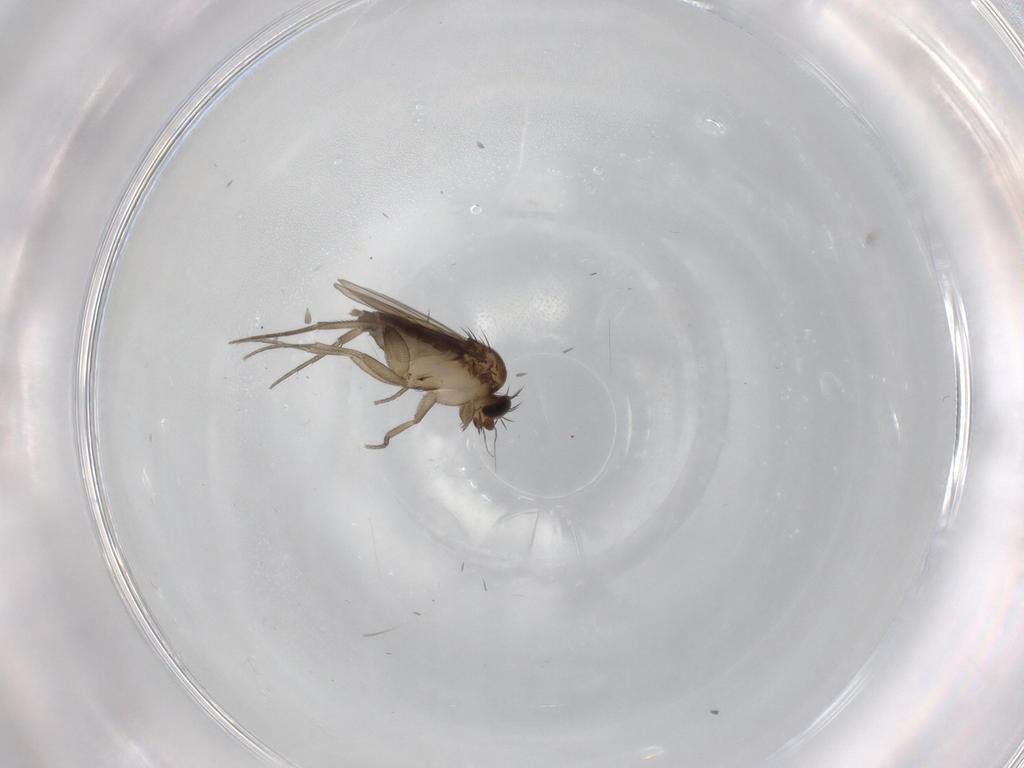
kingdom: Animalia
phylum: Arthropoda
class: Insecta
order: Diptera
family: Phoridae
